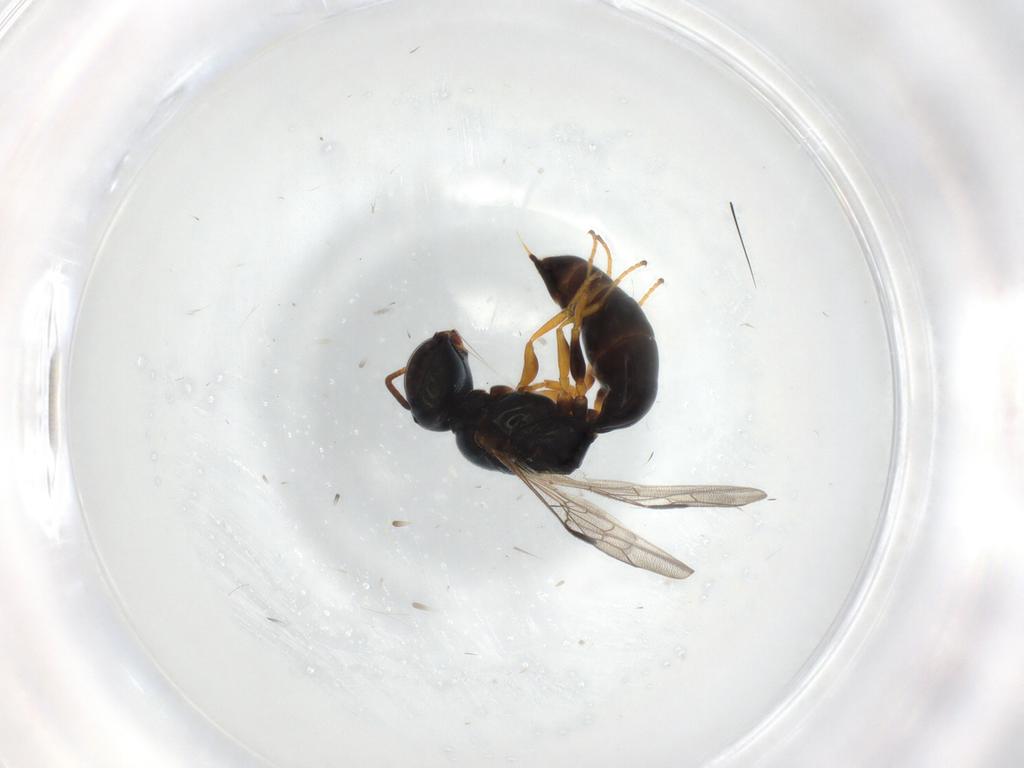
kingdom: Animalia
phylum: Arthropoda
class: Insecta
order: Hymenoptera
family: Pemphredonidae
